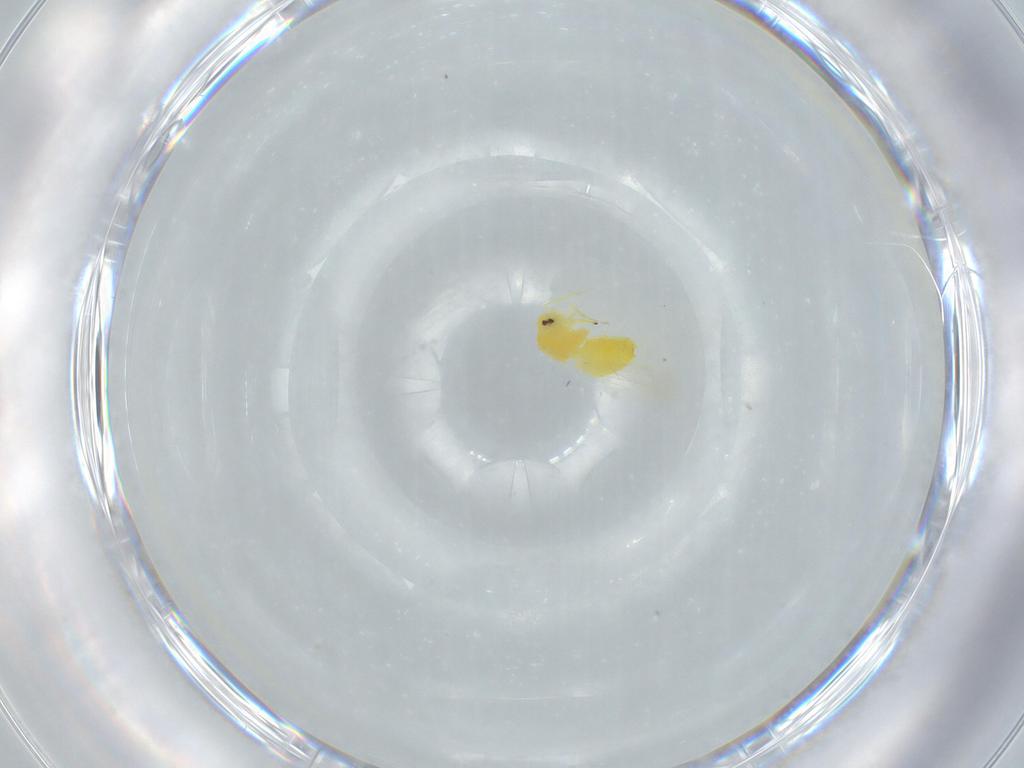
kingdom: Animalia
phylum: Arthropoda
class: Insecta
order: Hemiptera
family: Aleyrodidae
